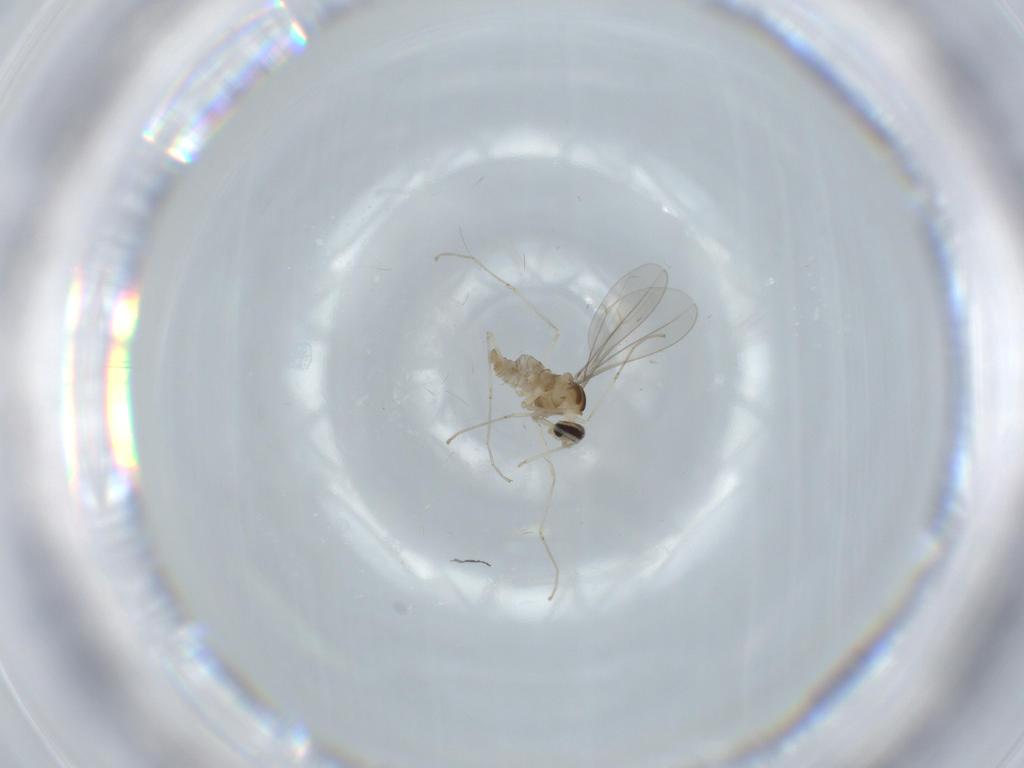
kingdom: Animalia
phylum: Arthropoda
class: Insecta
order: Diptera
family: Cecidomyiidae
